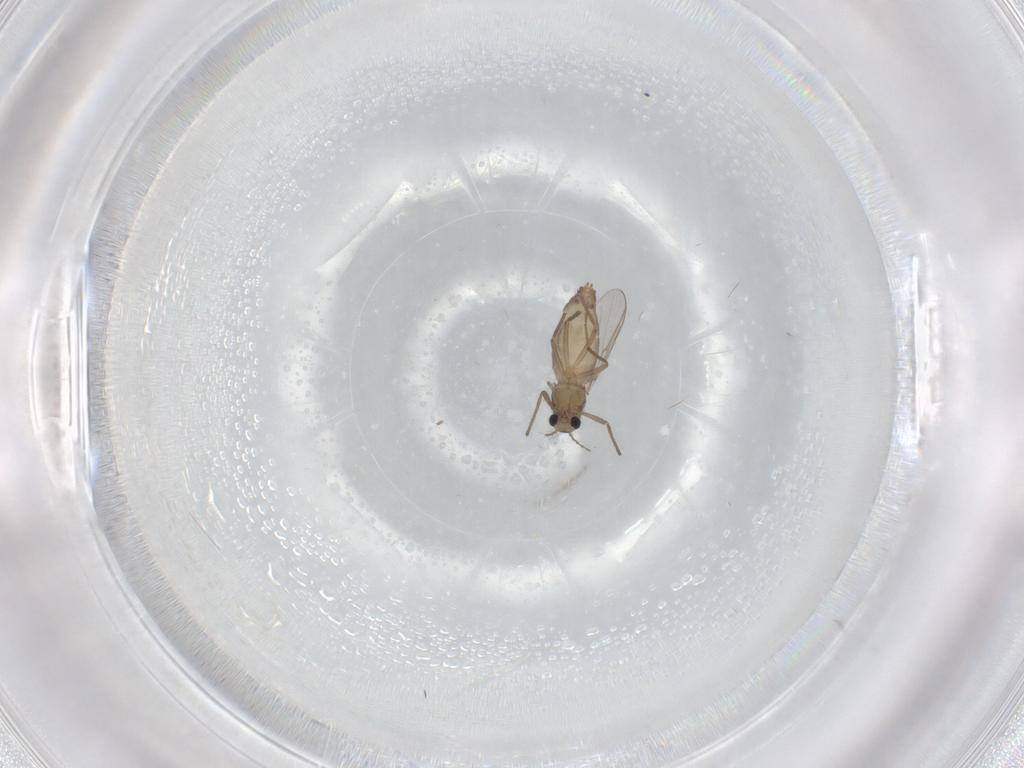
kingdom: Animalia
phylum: Arthropoda
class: Insecta
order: Diptera
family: Chironomidae
